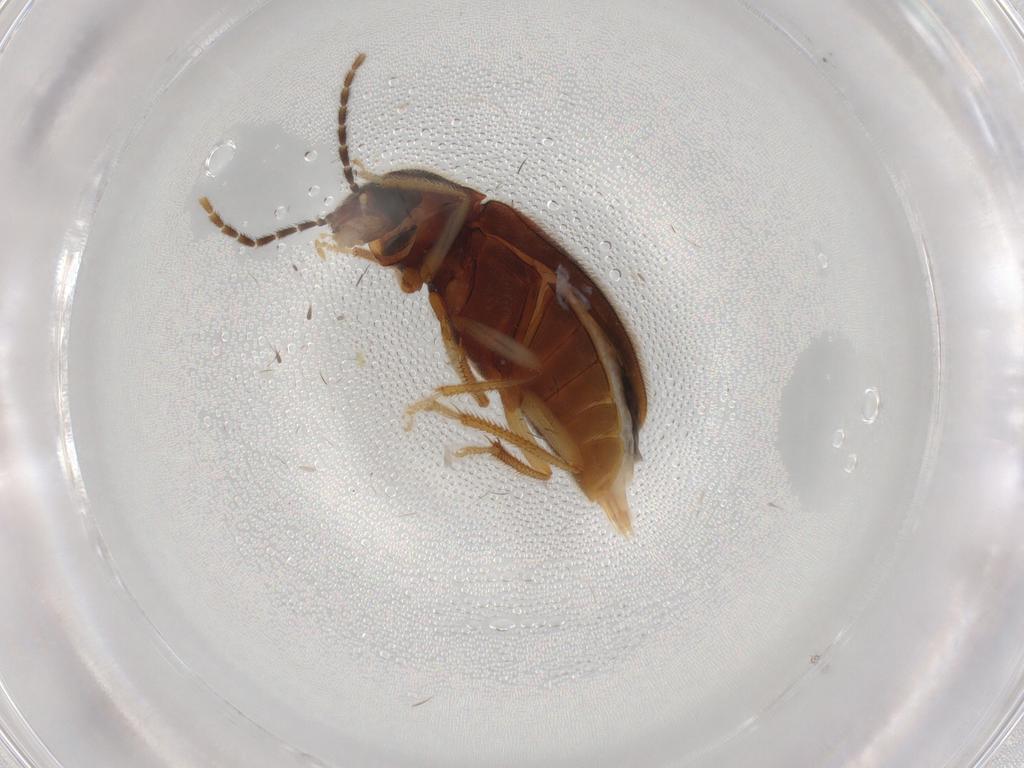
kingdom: Animalia
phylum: Arthropoda
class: Insecta
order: Coleoptera
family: Ptilodactylidae
